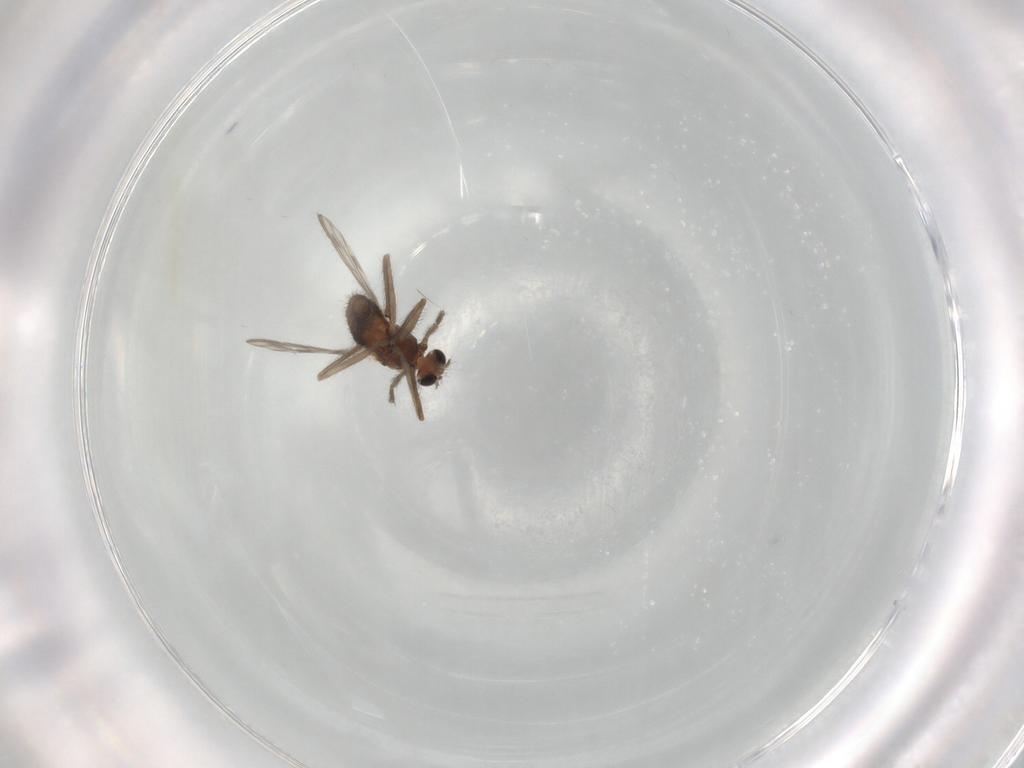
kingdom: Animalia
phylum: Arthropoda
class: Insecta
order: Diptera
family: Chironomidae
